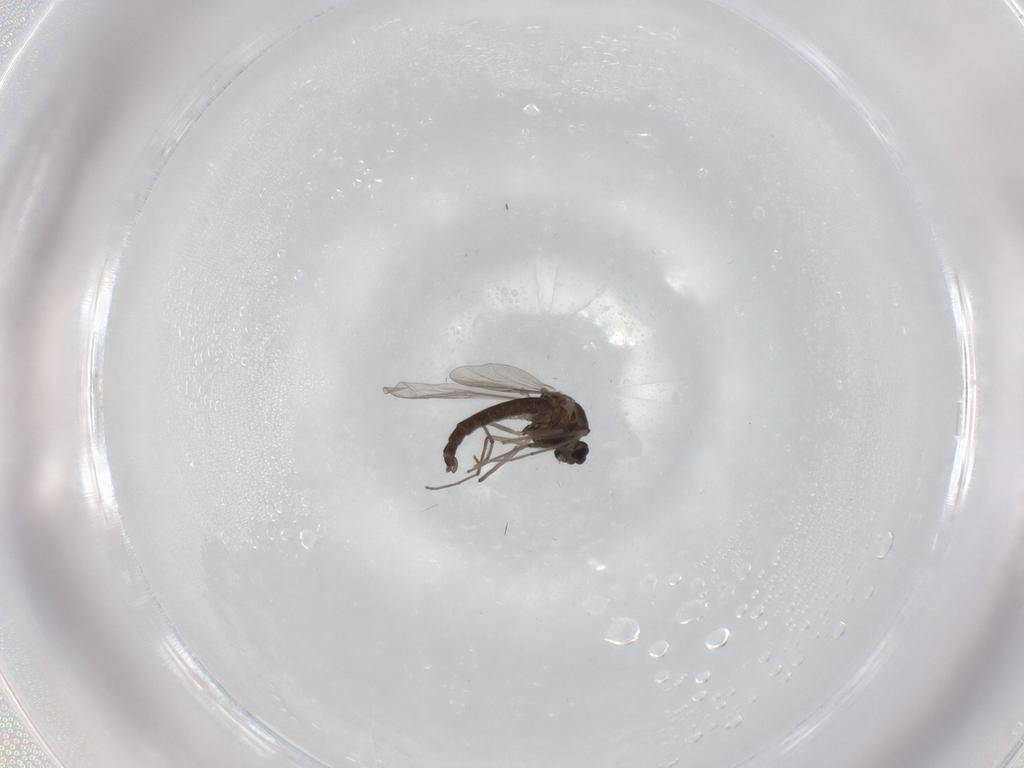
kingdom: Animalia
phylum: Arthropoda
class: Insecta
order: Diptera
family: Chironomidae
